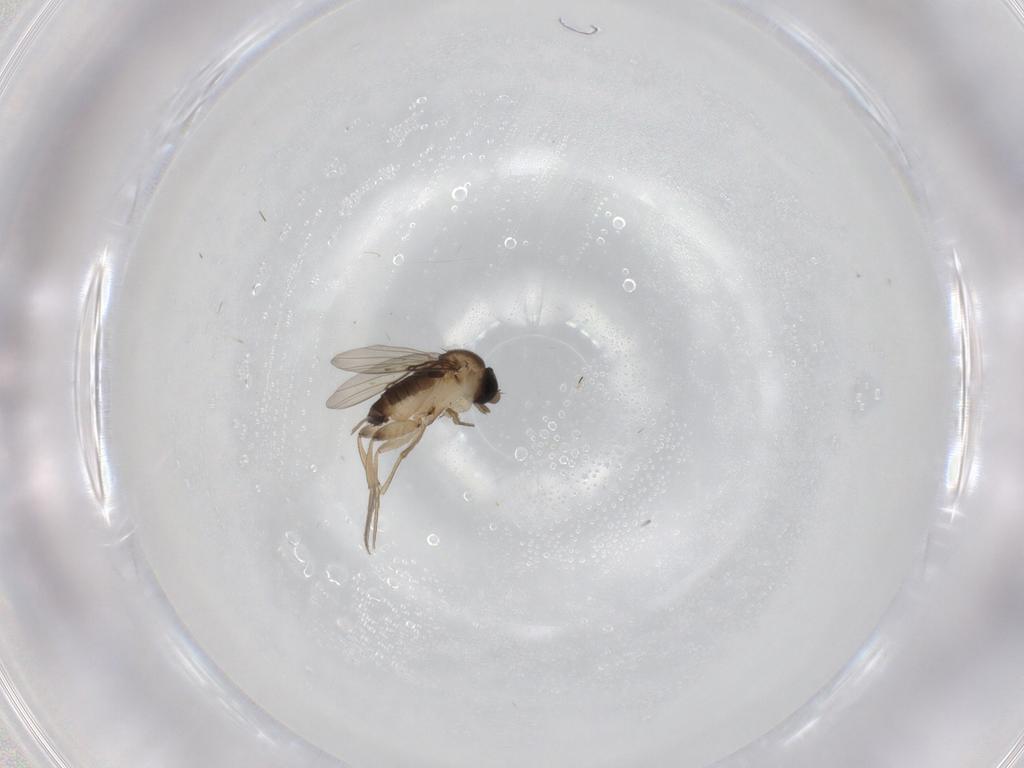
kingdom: Animalia
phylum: Arthropoda
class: Insecta
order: Diptera
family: Phoridae
